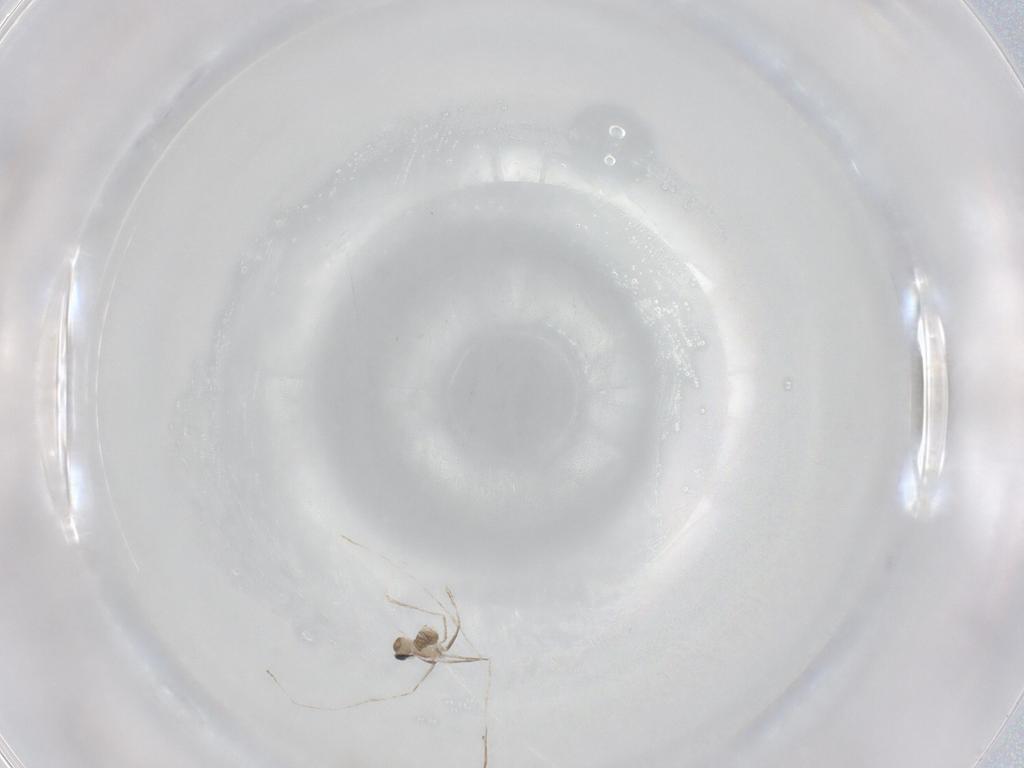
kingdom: Animalia
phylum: Arthropoda
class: Insecta
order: Diptera
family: Cecidomyiidae
